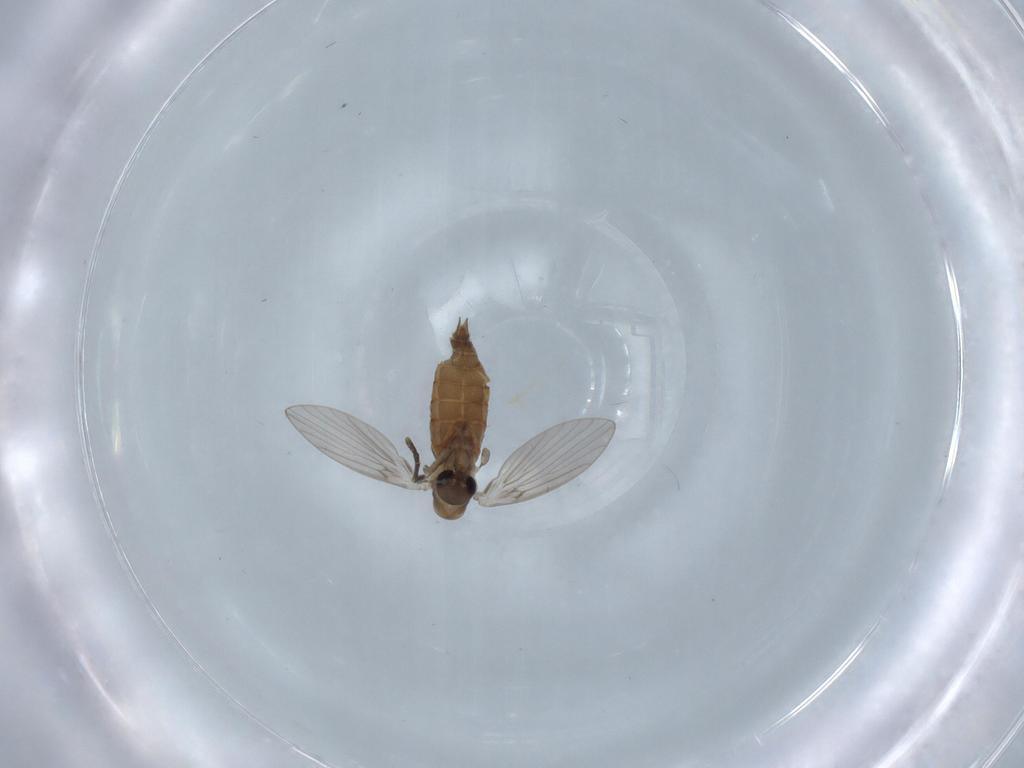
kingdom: Animalia
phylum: Arthropoda
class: Insecta
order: Diptera
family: Psychodidae
